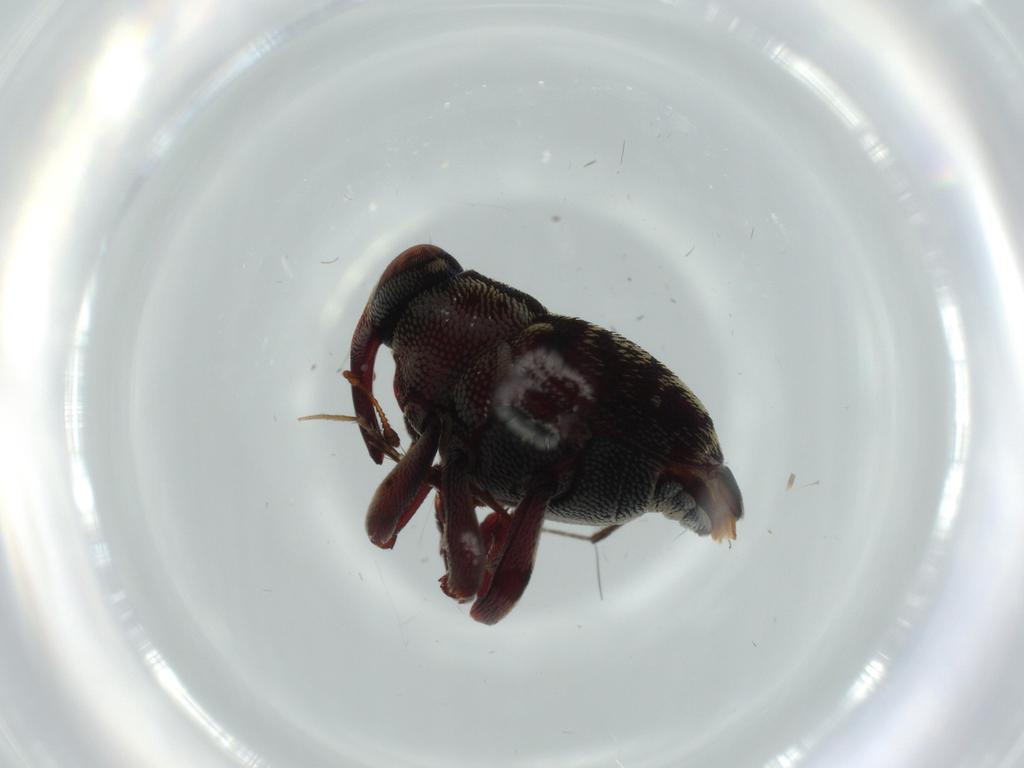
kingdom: Animalia
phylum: Arthropoda
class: Insecta
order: Coleoptera
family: Curculionidae
